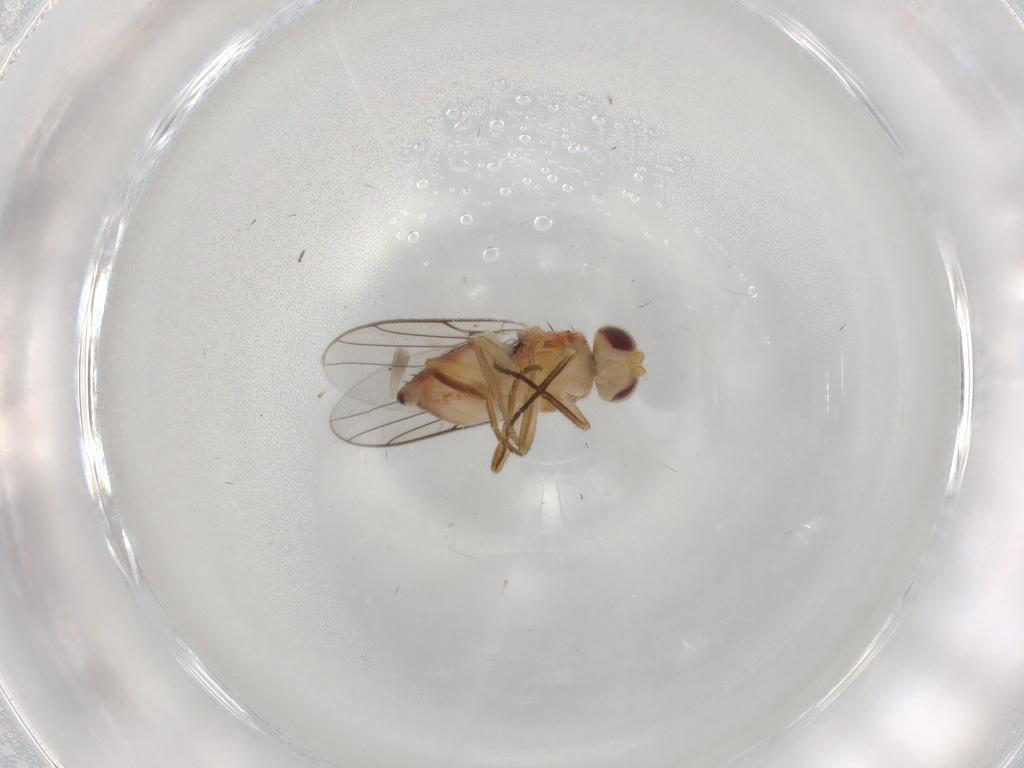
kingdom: Animalia
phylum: Arthropoda
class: Insecta
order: Diptera
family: Chloropidae
